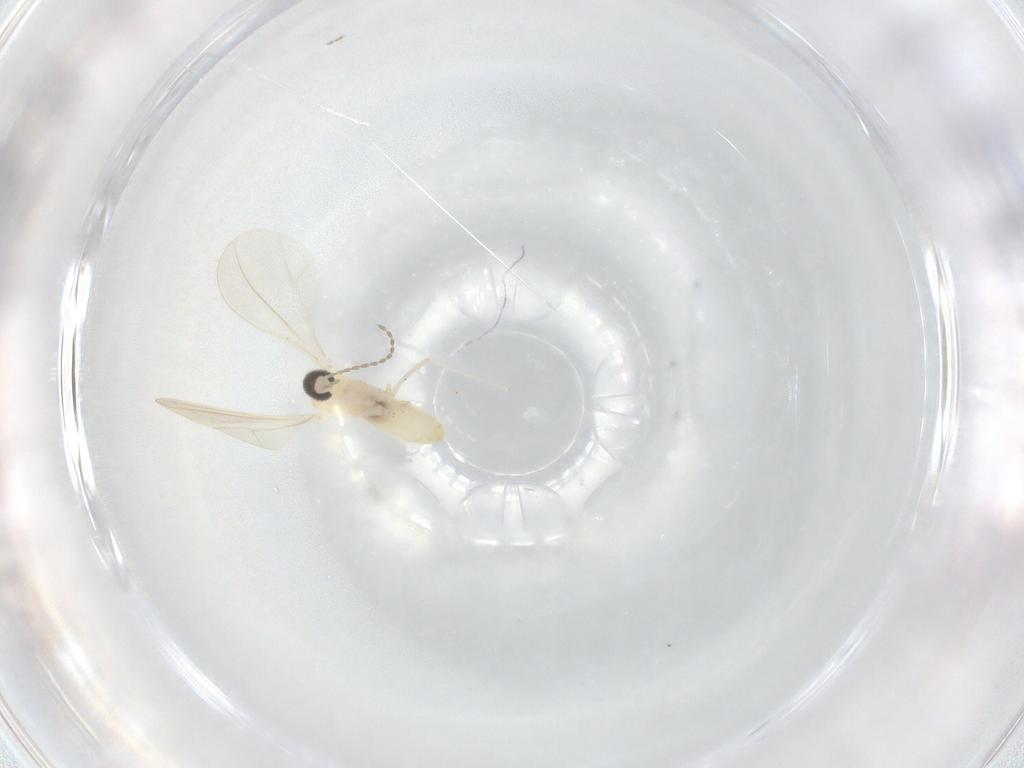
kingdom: Animalia
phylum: Arthropoda
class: Insecta
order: Diptera
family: Cecidomyiidae
